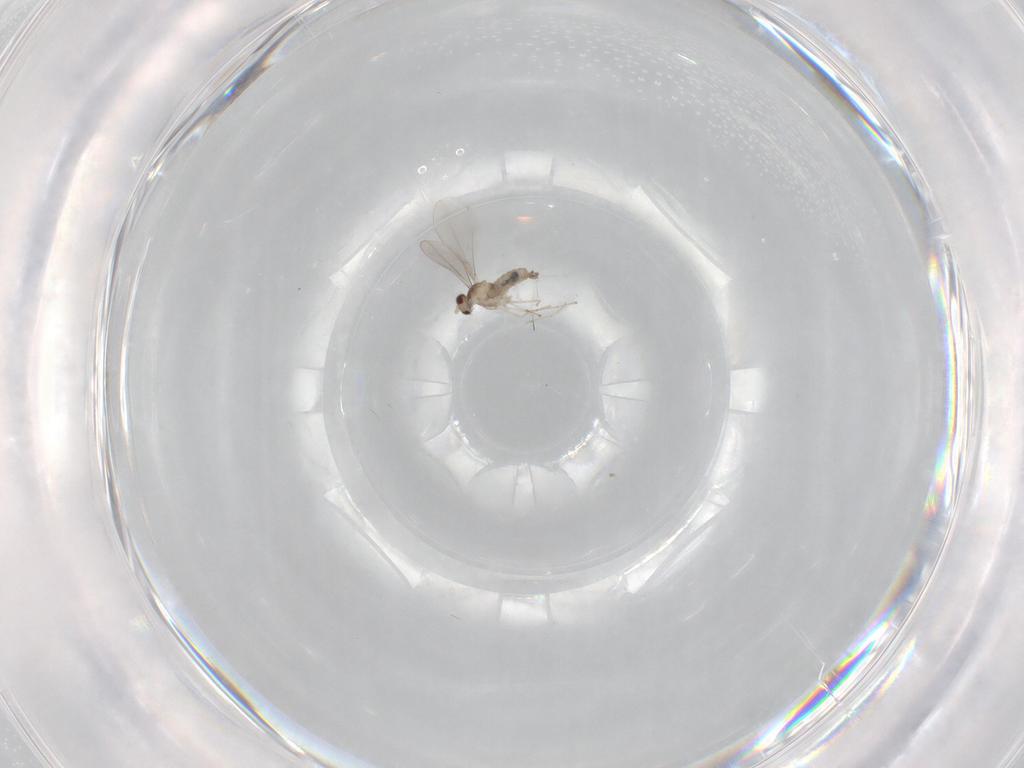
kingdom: Animalia
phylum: Arthropoda
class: Insecta
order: Diptera
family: Cecidomyiidae
